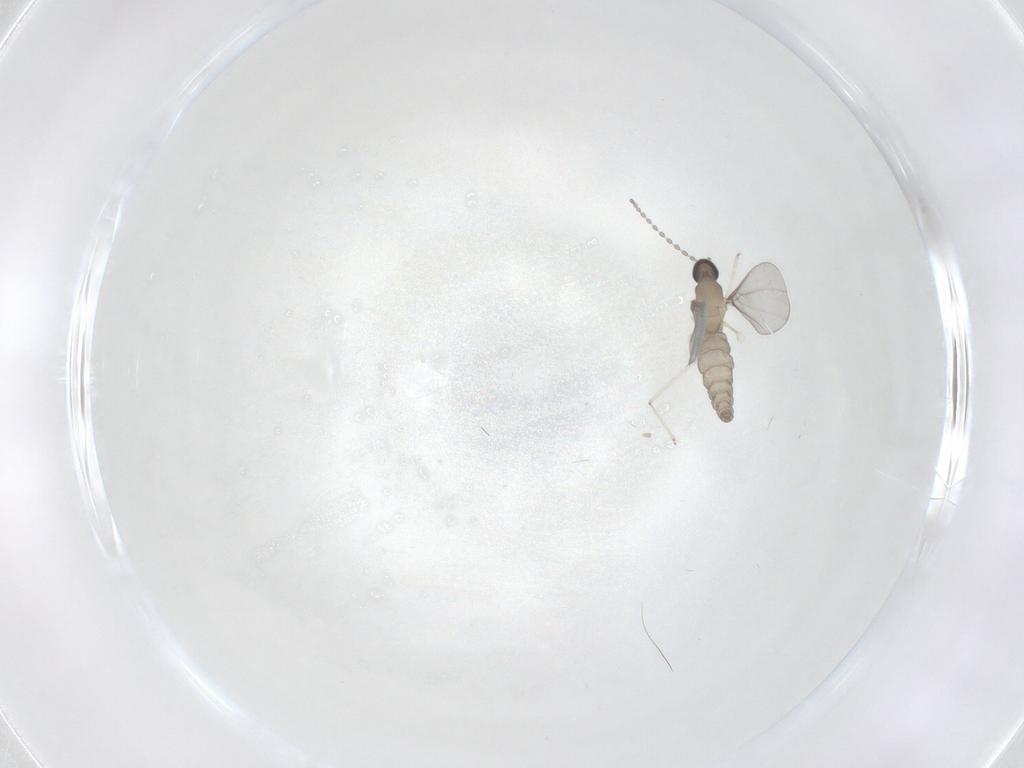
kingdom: Animalia
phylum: Arthropoda
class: Insecta
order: Diptera
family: Cecidomyiidae
